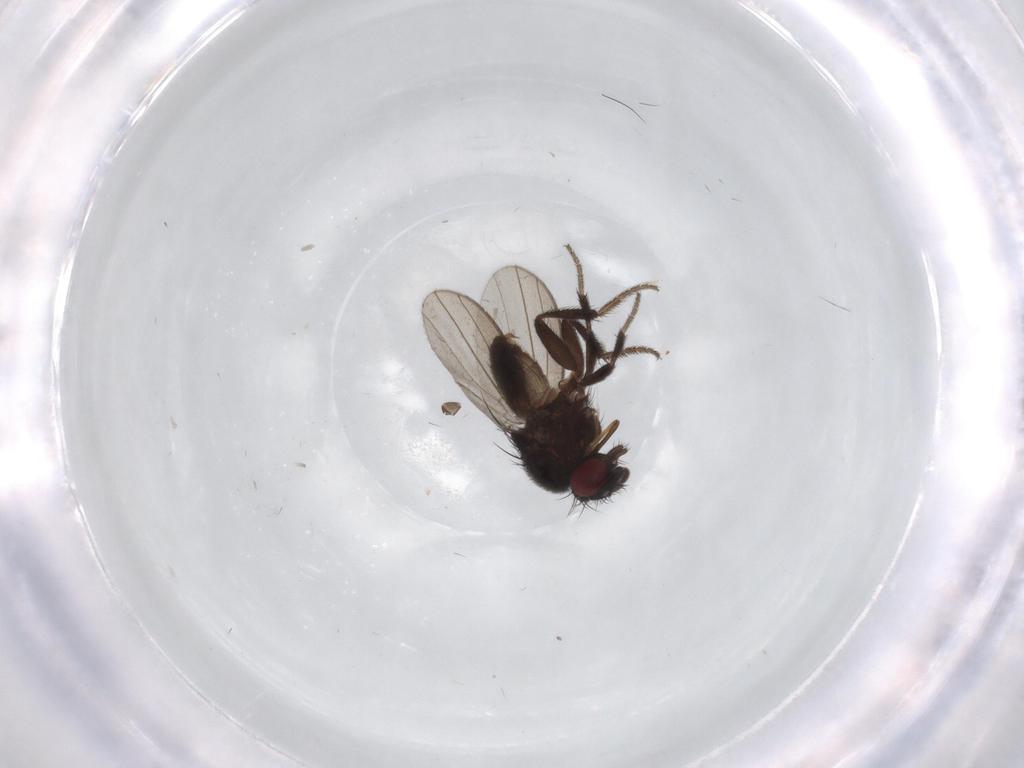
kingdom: Animalia
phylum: Arthropoda
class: Insecta
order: Diptera
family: Milichiidae
